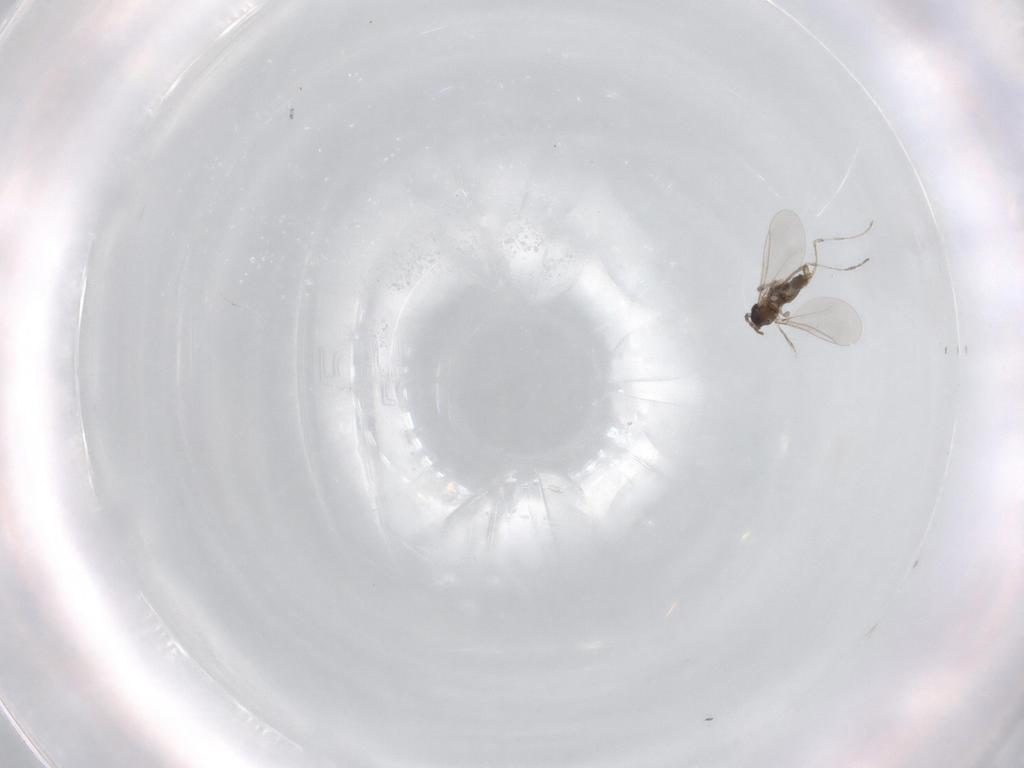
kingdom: Animalia
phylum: Arthropoda
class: Insecta
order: Diptera
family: Cecidomyiidae
